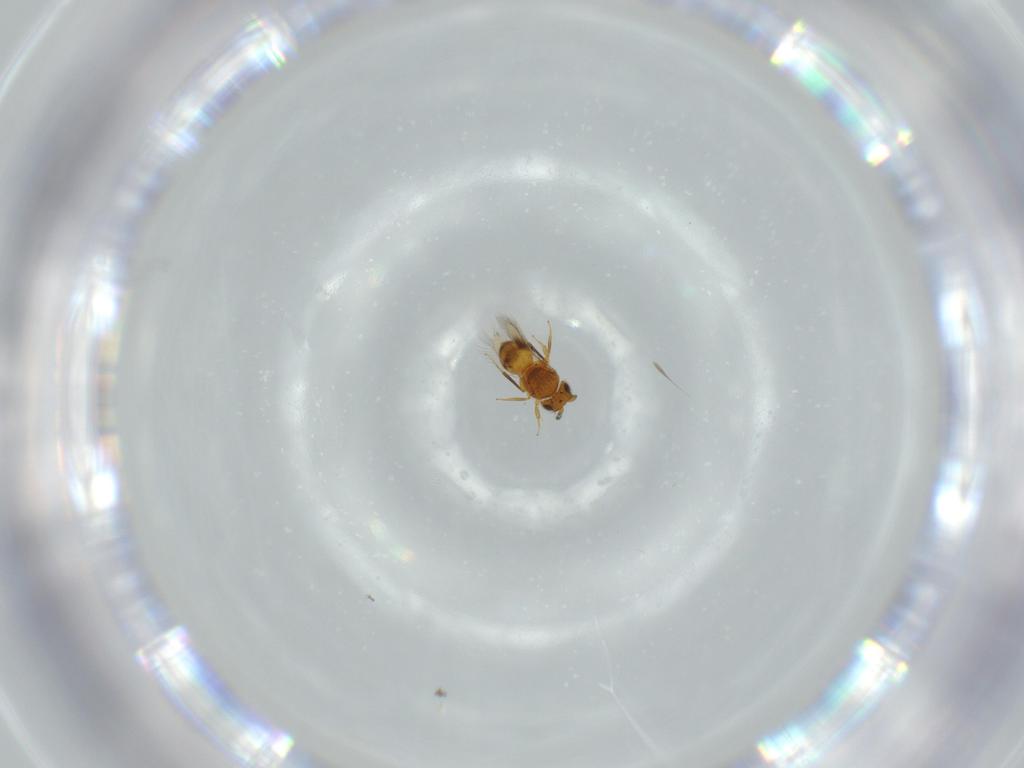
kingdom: Animalia
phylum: Arthropoda
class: Insecta
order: Hymenoptera
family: Scelionidae
